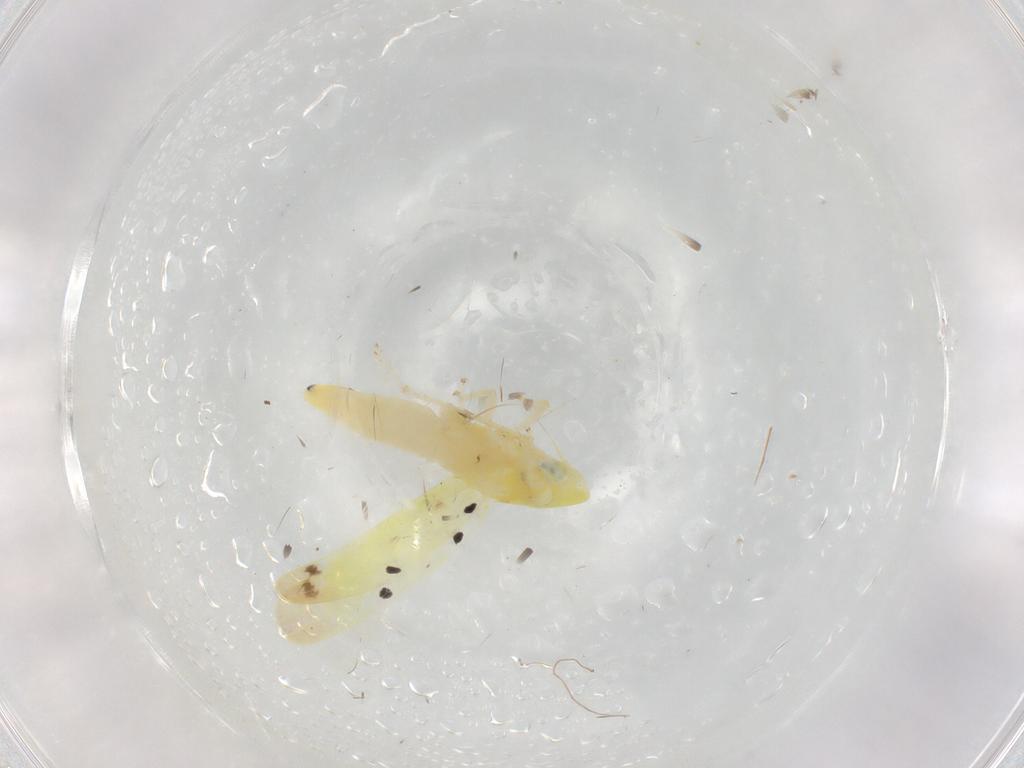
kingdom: Animalia
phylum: Arthropoda
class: Insecta
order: Hemiptera
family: Cicadellidae
